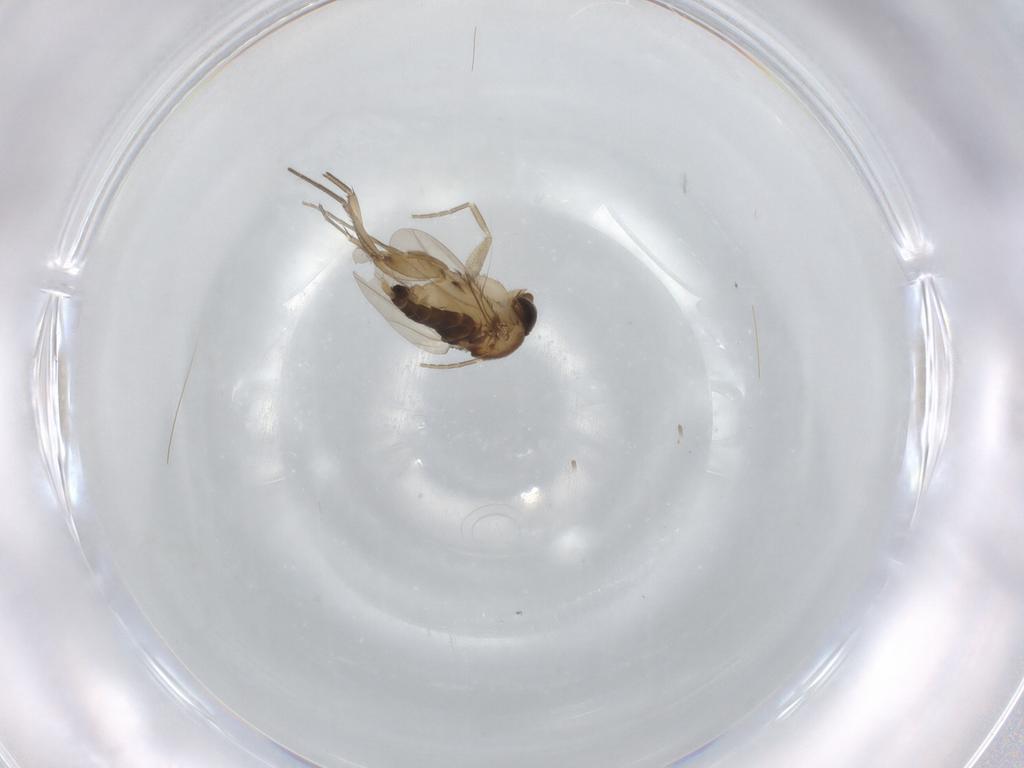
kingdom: Animalia
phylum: Arthropoda
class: Insecta
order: Diptera
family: Phoridae
